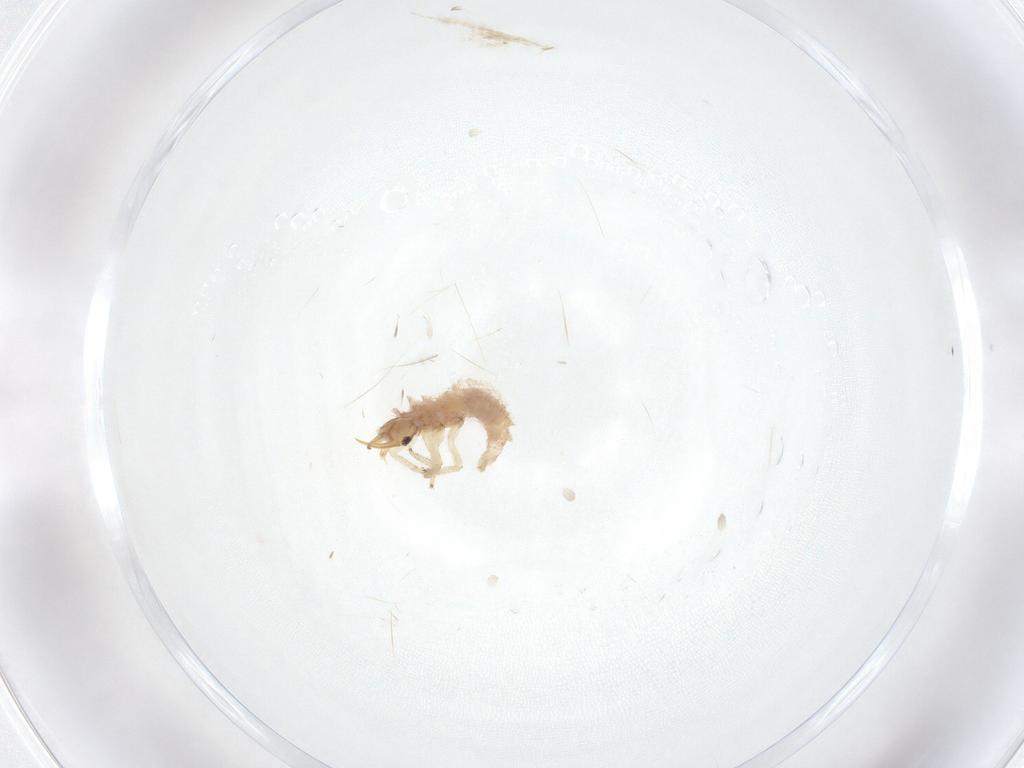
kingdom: Animalia
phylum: Arthropoda
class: Insecta
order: Neuroptera
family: Chrysopidae
